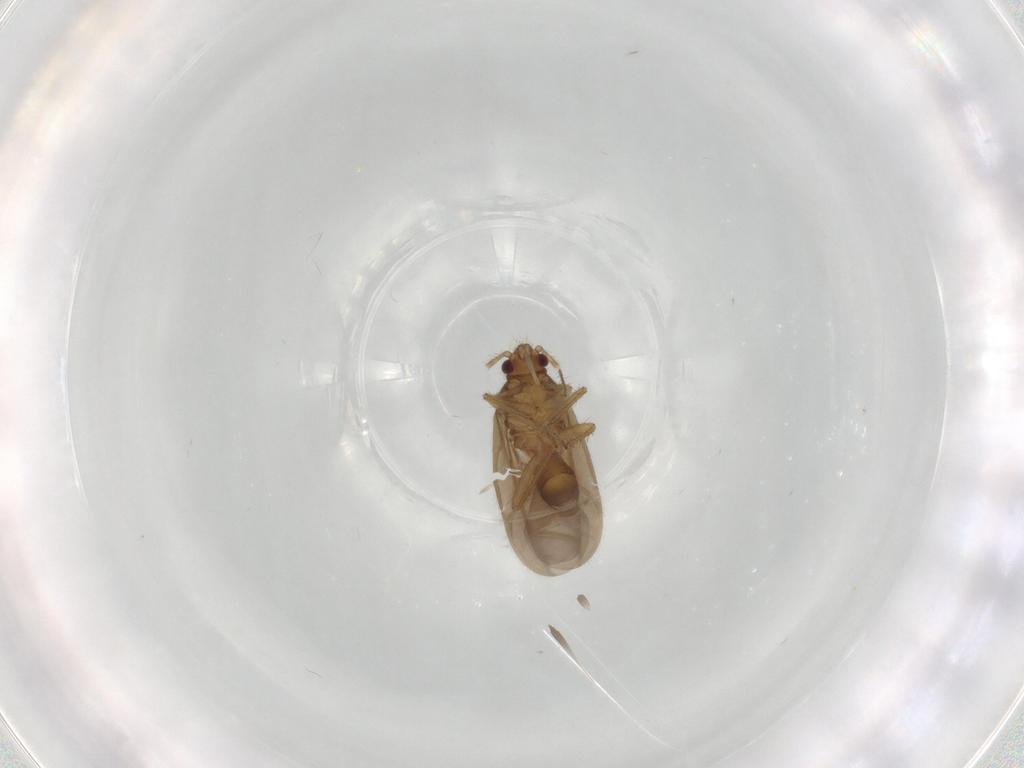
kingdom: Animalia
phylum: Arthropoda
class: Insecta
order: Hemiptera
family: Ceratocombidae
